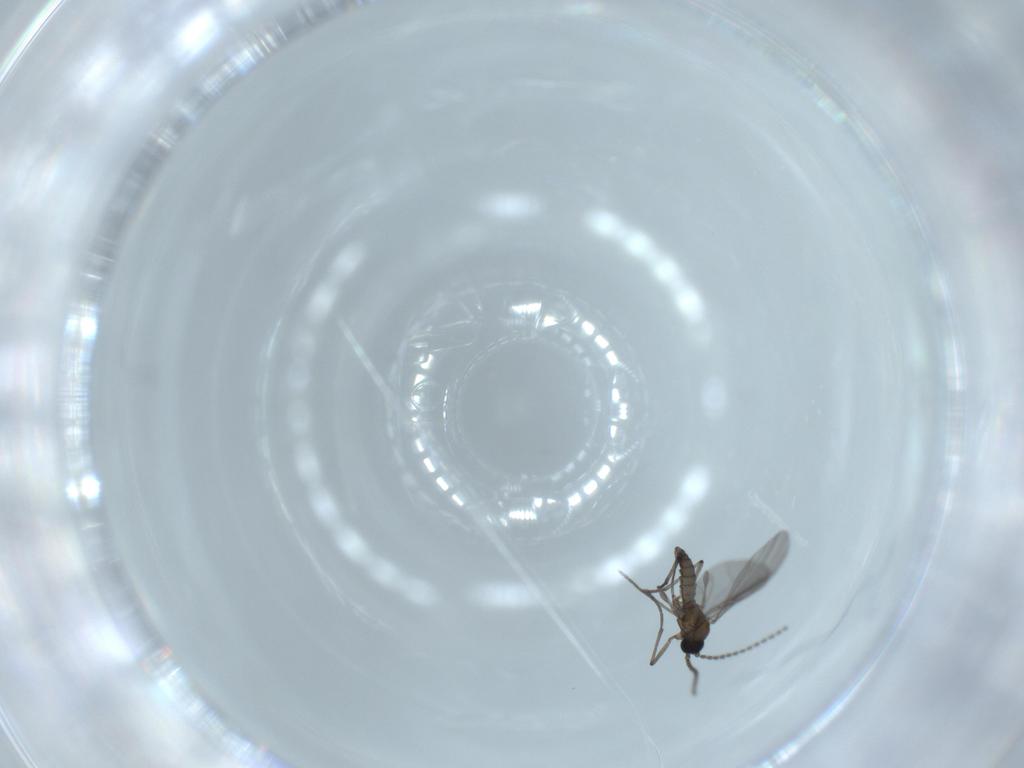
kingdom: Animalia
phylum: Arthropoda
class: Insecta
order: Diptera
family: Sciaridae
